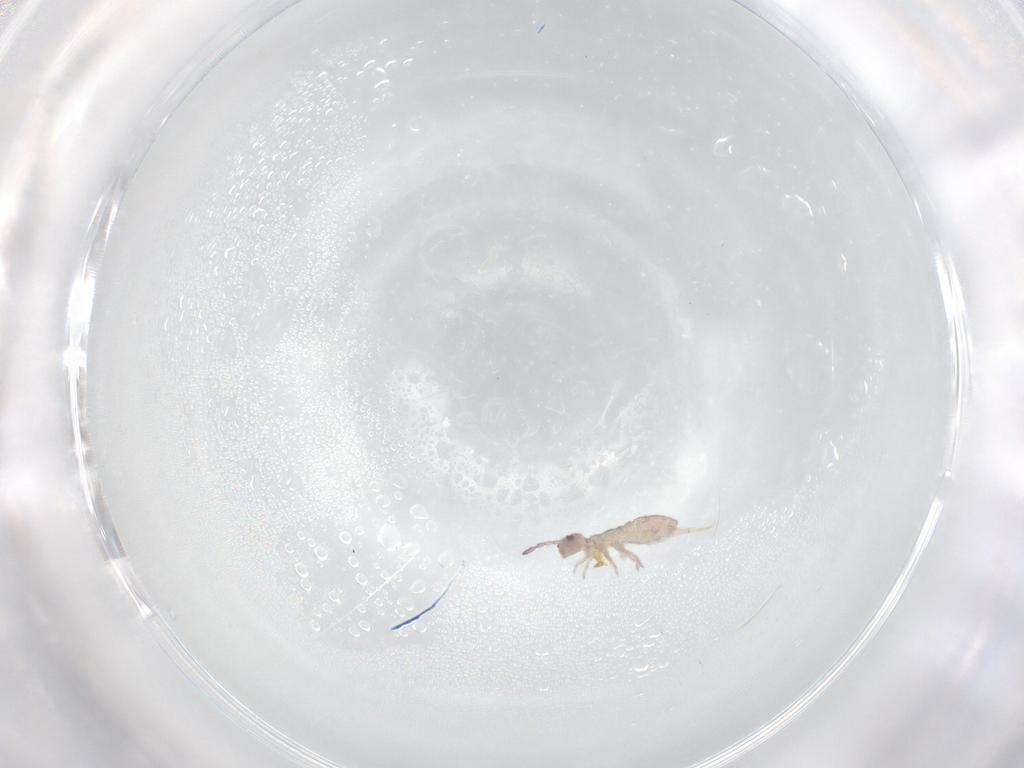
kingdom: Animalia
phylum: Arthropoda
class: Collembola
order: Entomobryomorpha
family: Isotomidae
